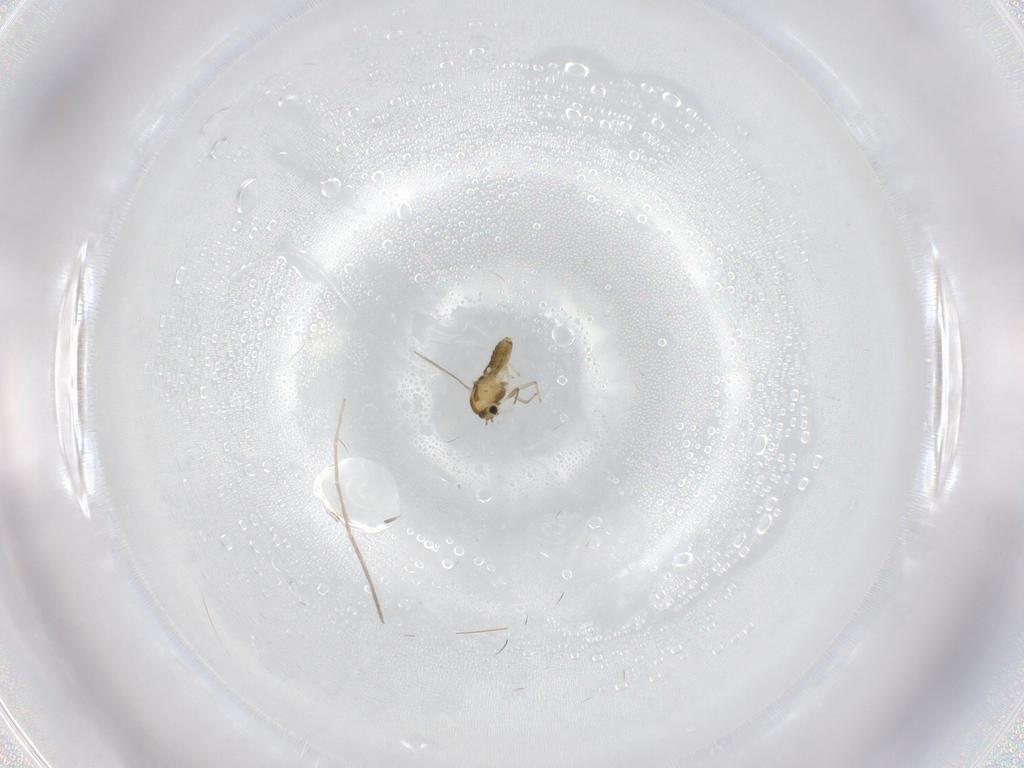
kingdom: Animalia
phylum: Arthropoda
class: Insecta
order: Diptera
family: Chironomidae
